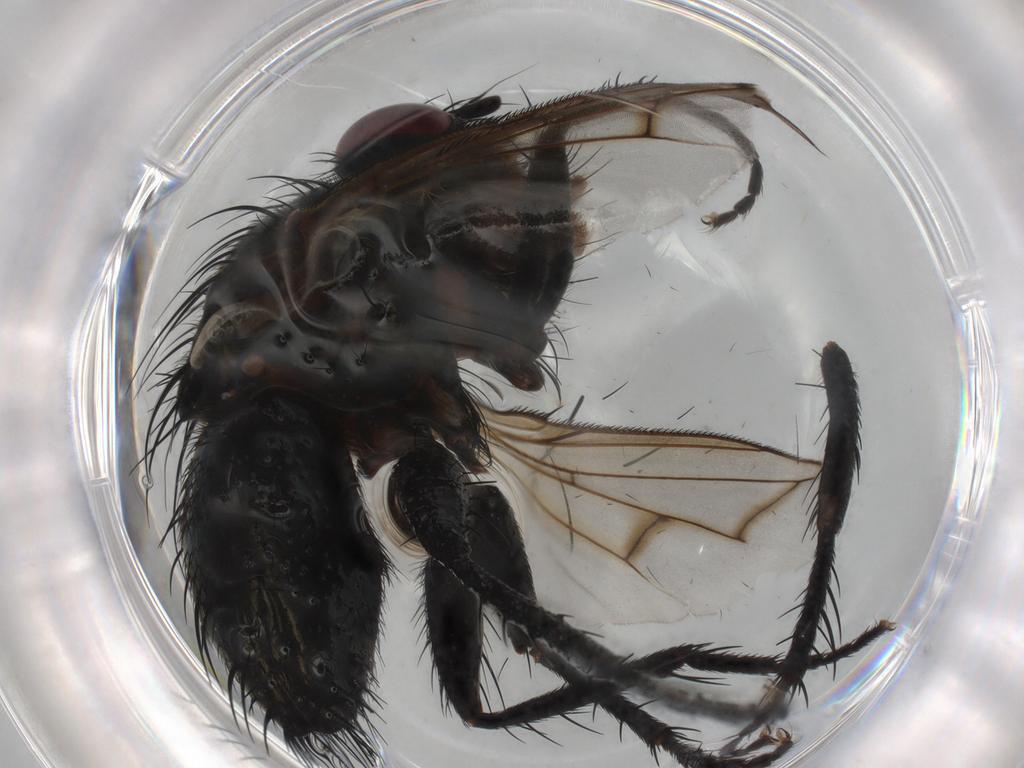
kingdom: Animalia
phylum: Arthropoda
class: Insecta
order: Diptera
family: Tachinidae
